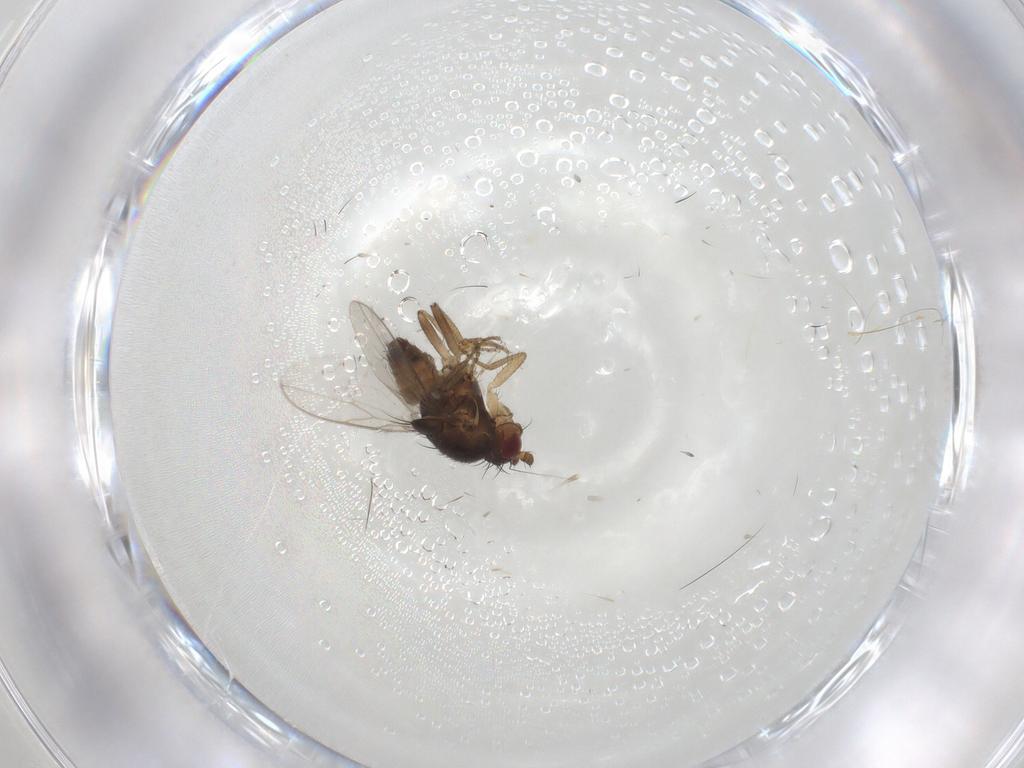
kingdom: Animalia
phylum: Arthropoda
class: Insecta
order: Diptera
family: Sphaeroceridae
